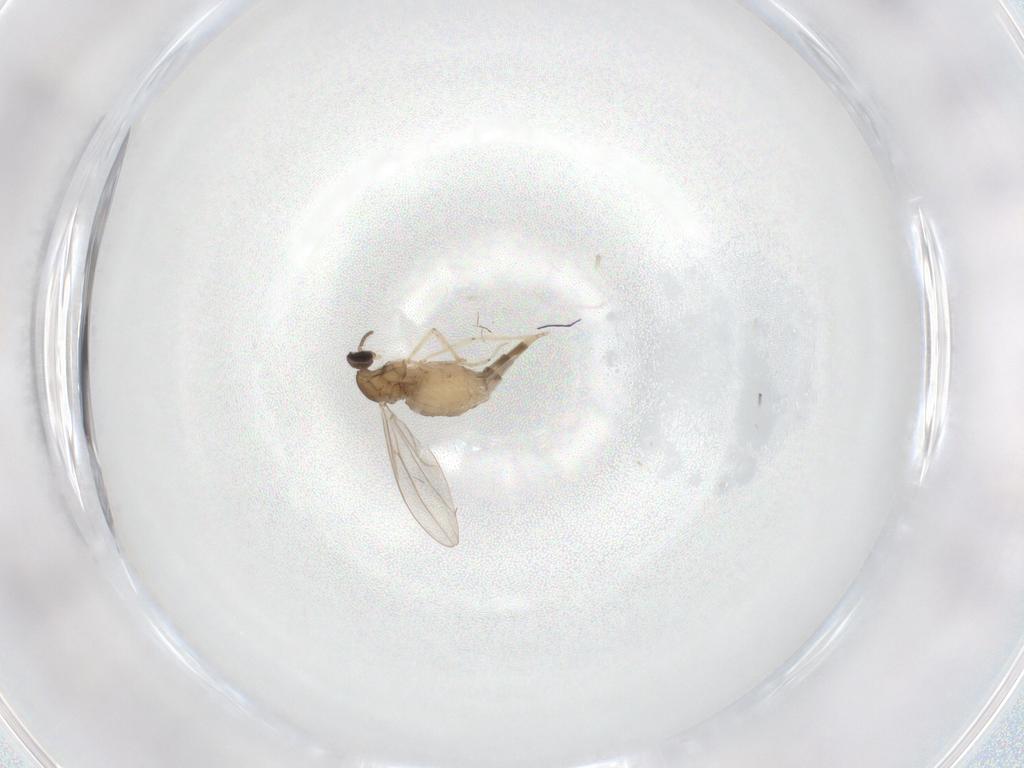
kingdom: Animalia
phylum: Arthropoda
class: Insecta
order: Diptera
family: Cecidomyiidae
